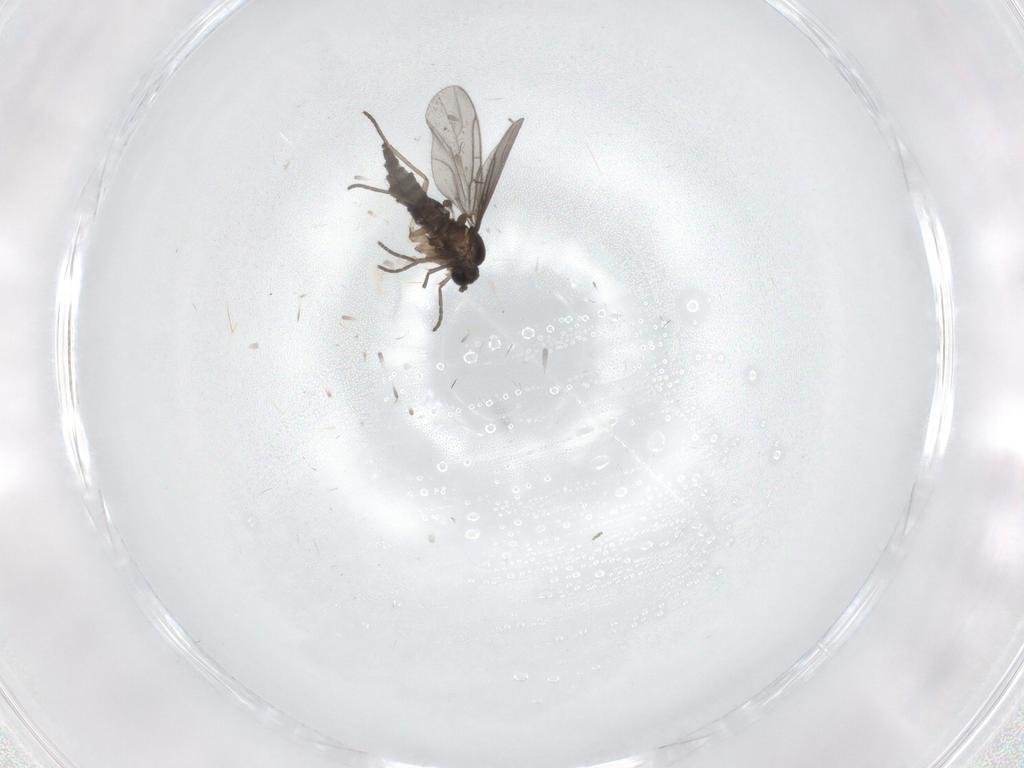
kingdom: Animalia
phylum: Arthropoda
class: Insecta
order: Diptera
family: Sciaridae
